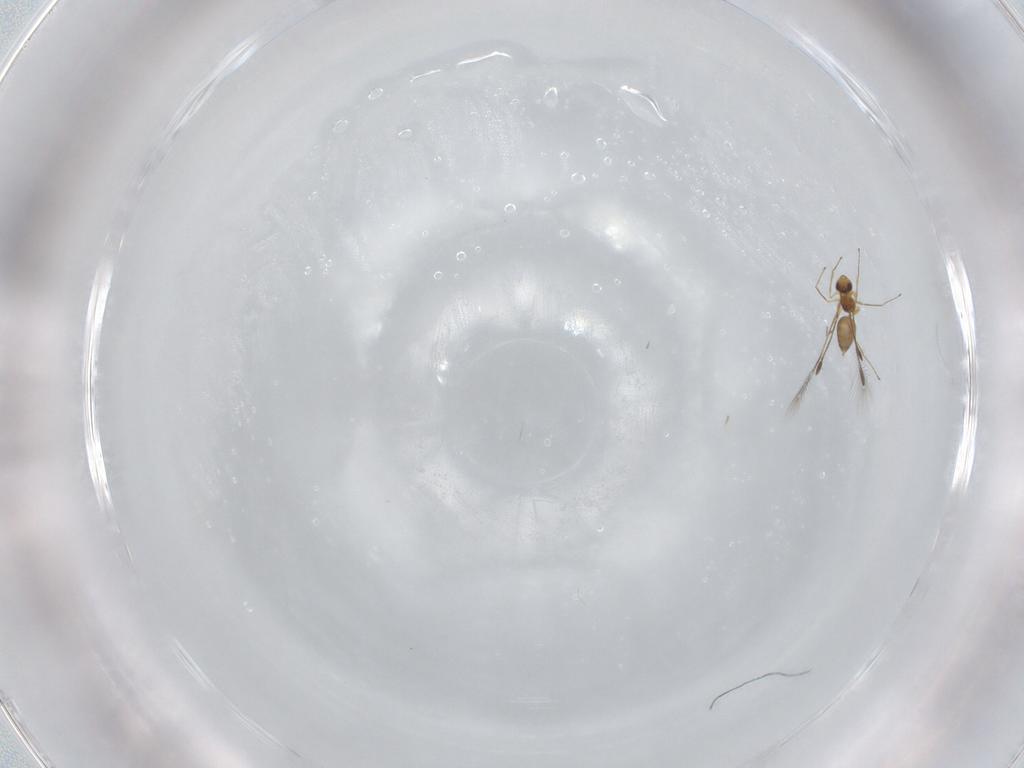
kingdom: Animalia
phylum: Arthropoda
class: Insecta
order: Hymenoptera
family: Mymaridae
